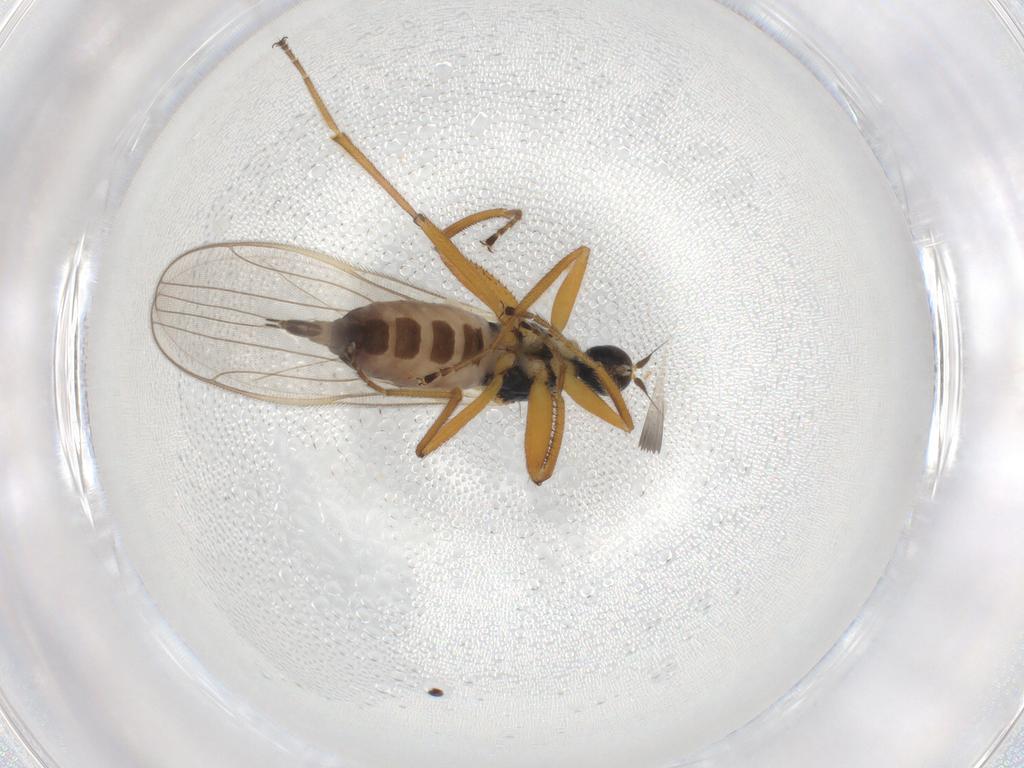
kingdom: Animalia
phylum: Arthropoda
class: Insecta
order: Diptera
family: Hybotidae
